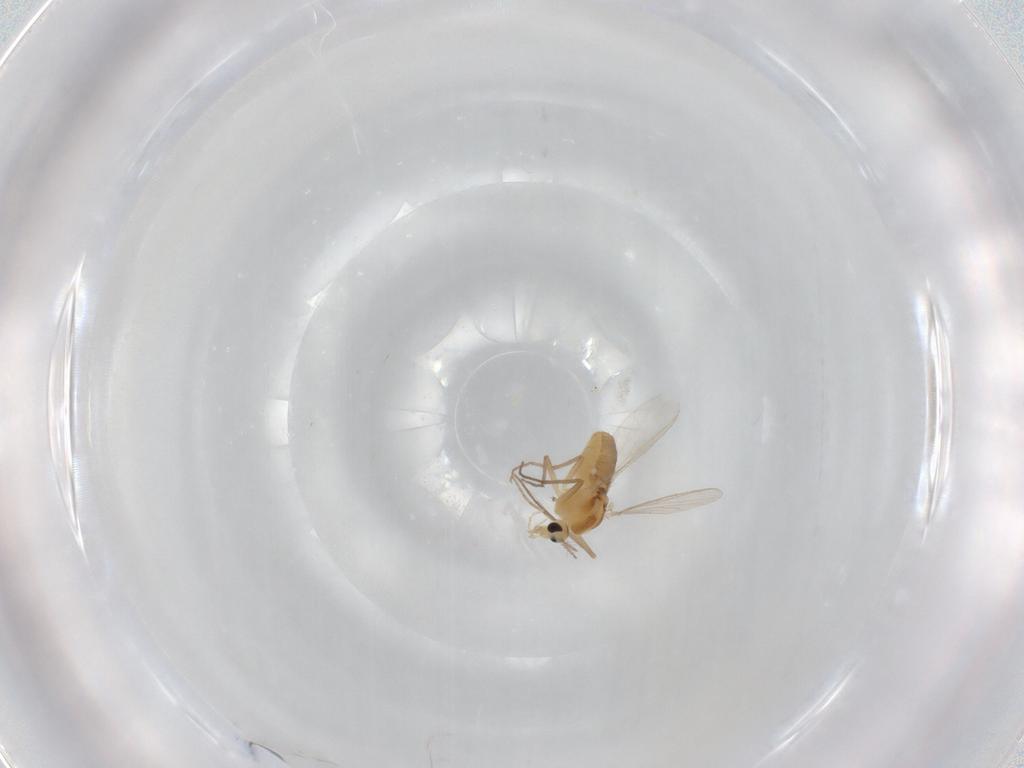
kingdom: Animalia
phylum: Arthropoda
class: Insecta
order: Diptera
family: Chironomidae
